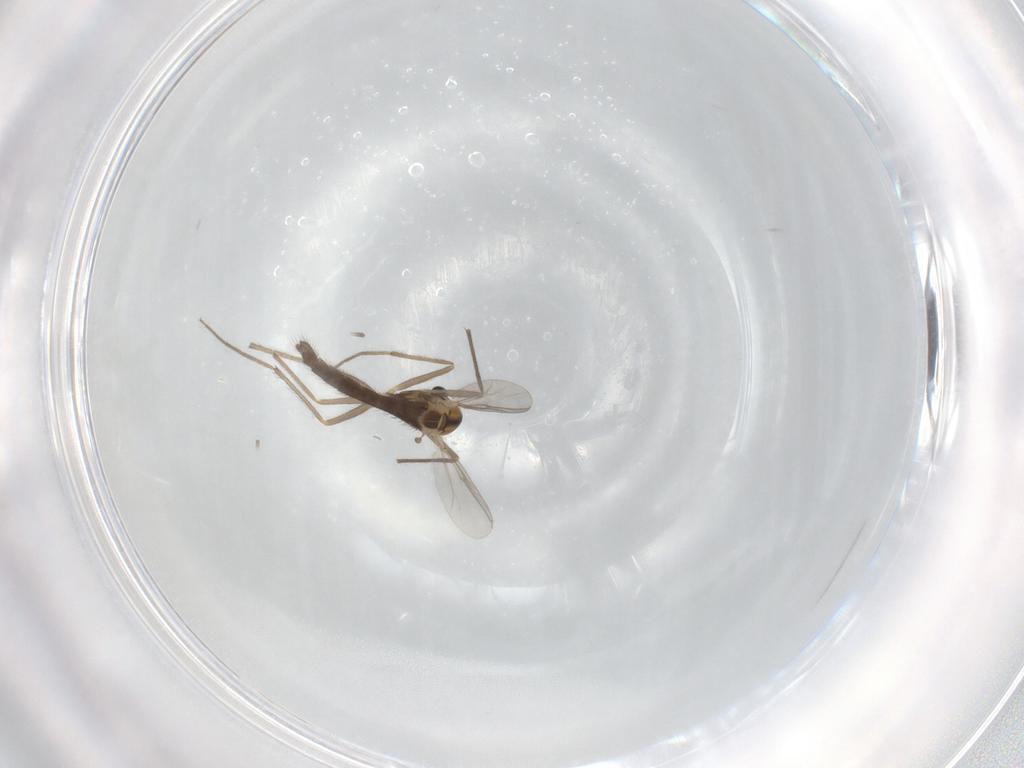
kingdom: Animalia
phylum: Arthropoda
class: Insecta
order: Diptera
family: Chironomidae
